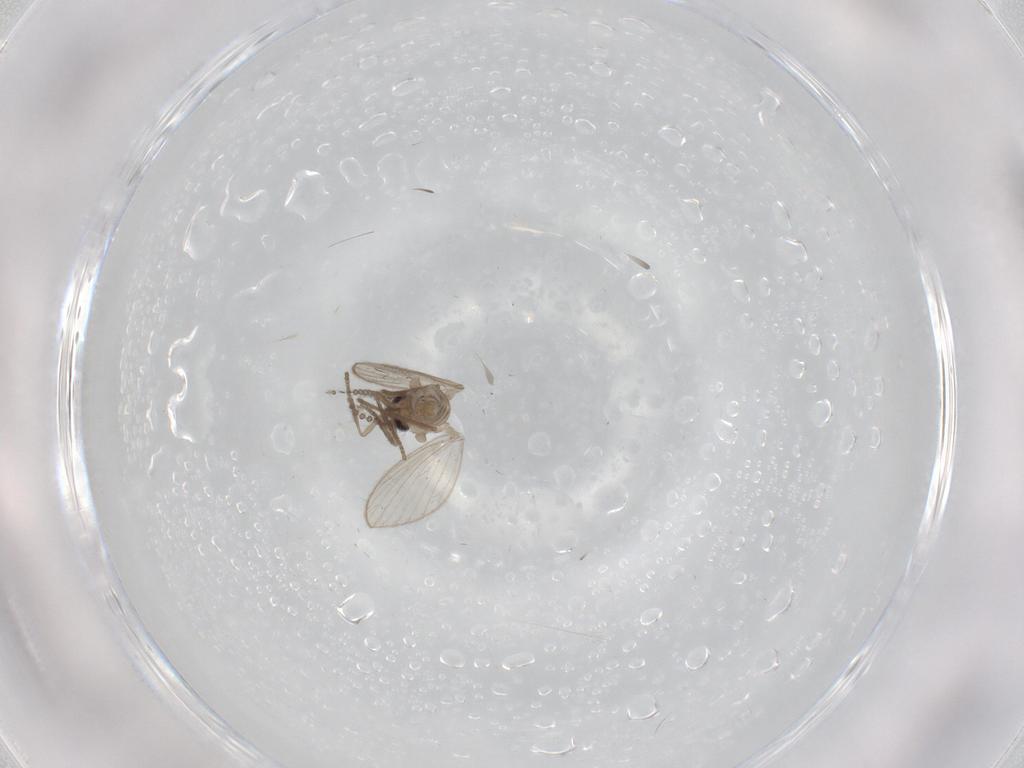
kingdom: Animalia
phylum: Arthropoda
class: Insecta
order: Diptera
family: Psychodidae
